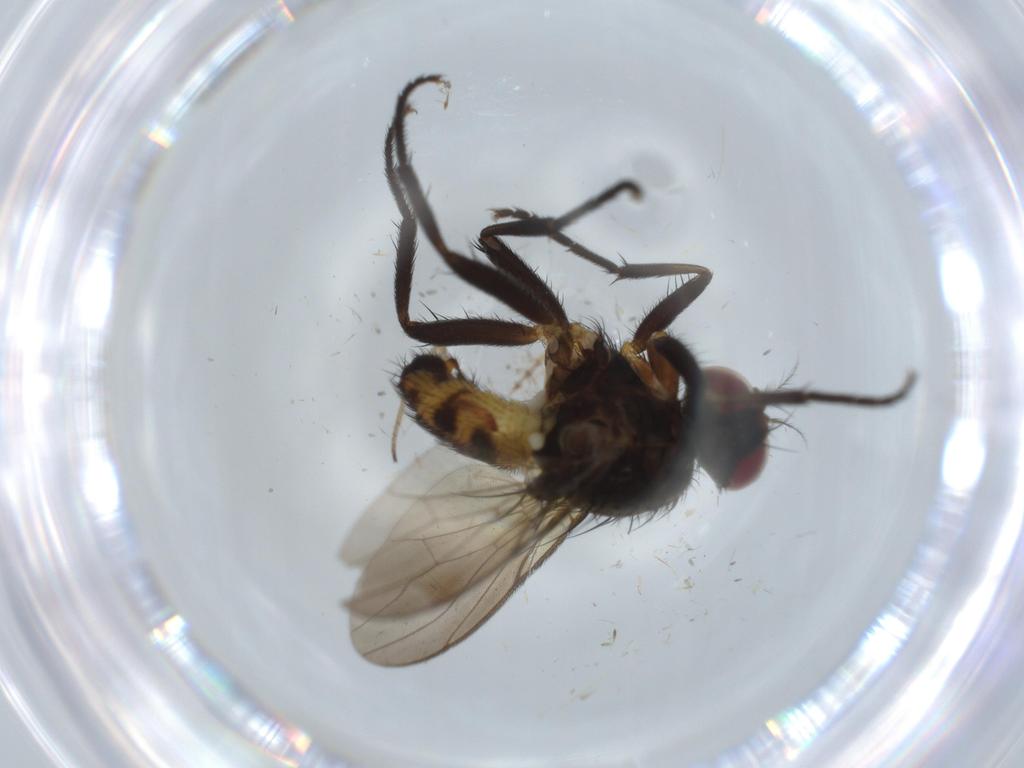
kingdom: Animalia
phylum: Arthropoda
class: Insecta
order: Diptera
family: Anthomyiidae
